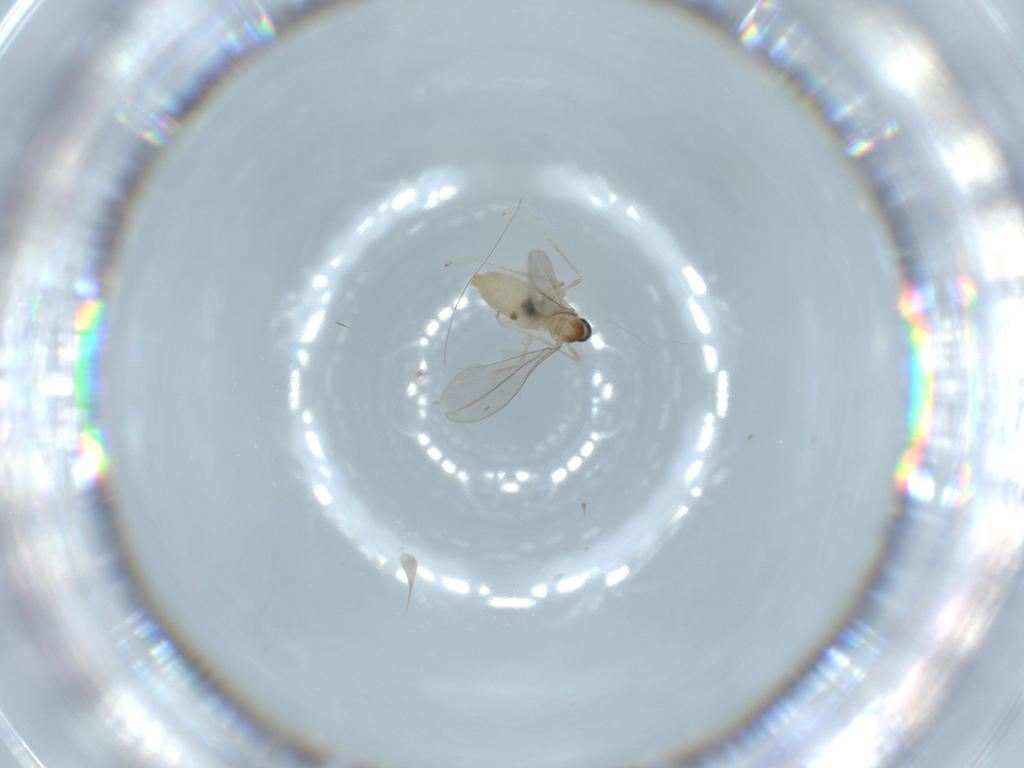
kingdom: Animalia
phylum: Arthropoda
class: Insecta
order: Diptera
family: Cecidomyiidae
